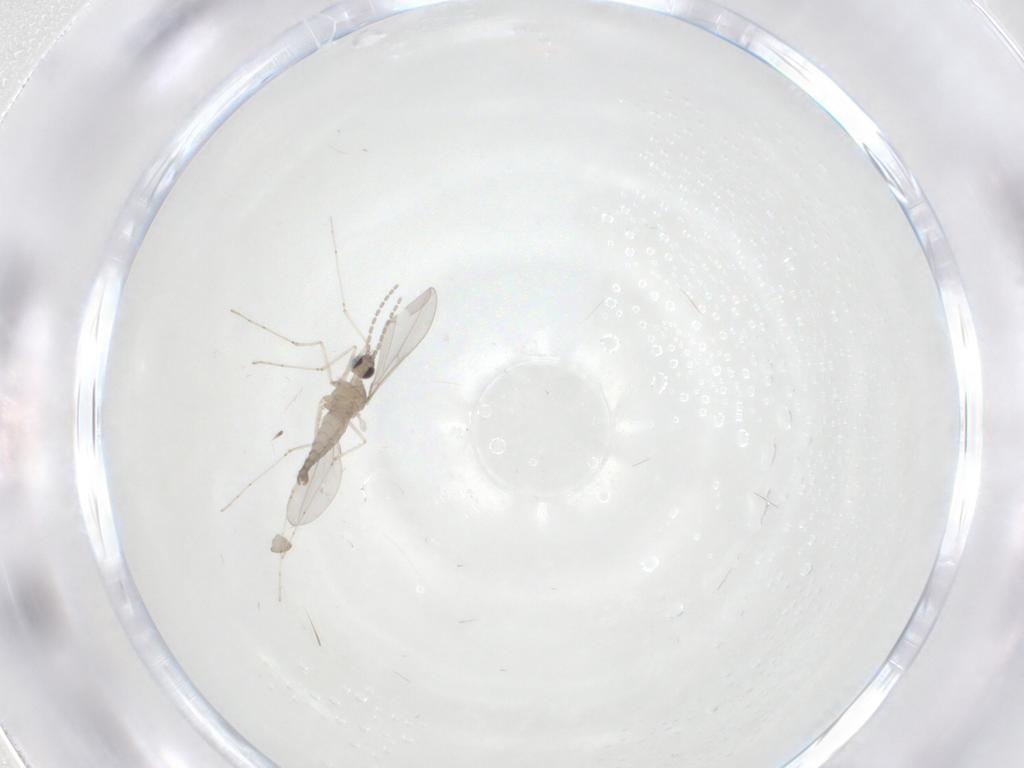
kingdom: Animalia
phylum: Arthropoda
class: Insecta
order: Diptera
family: Chironomidae
